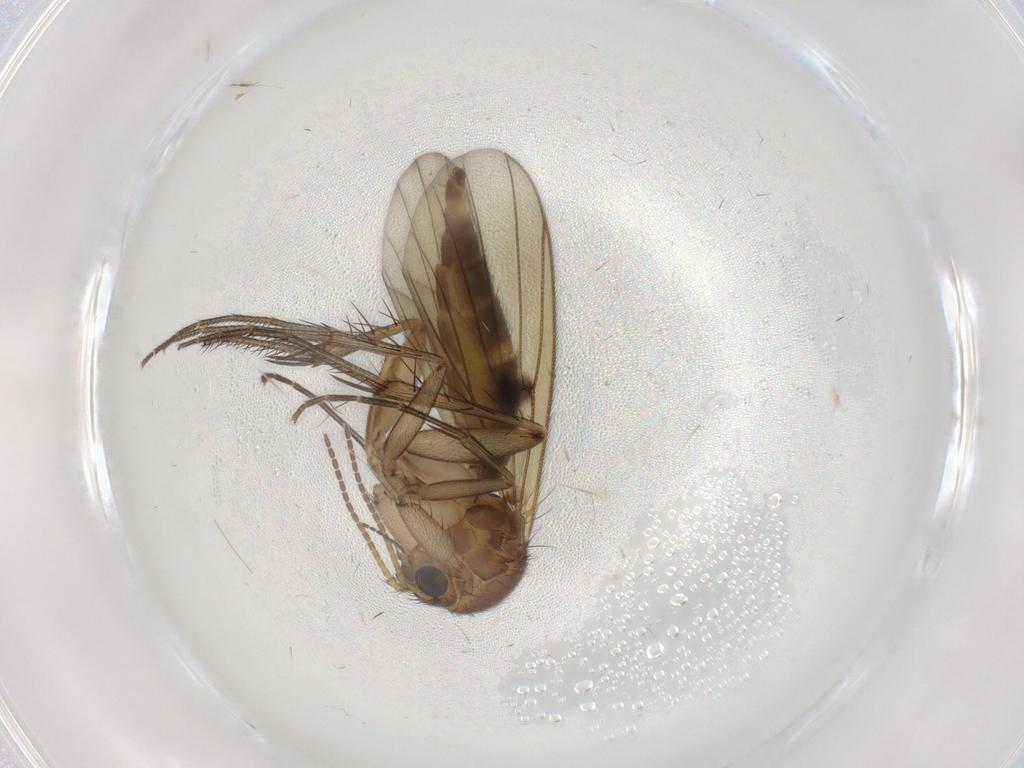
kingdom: Animalia
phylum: Arthropoda
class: Insecta
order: Diptera
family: Mycetophilidae
